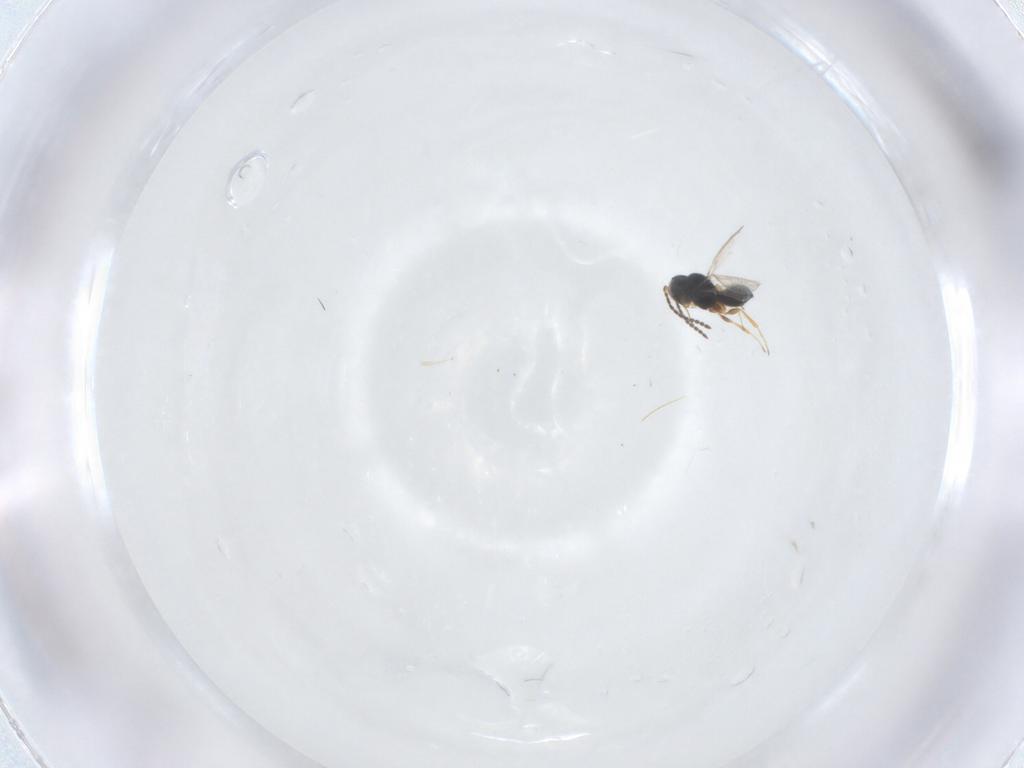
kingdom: Animalia
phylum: Arthropoda
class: Insecta
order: Hymenoptera
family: Scelionidae
